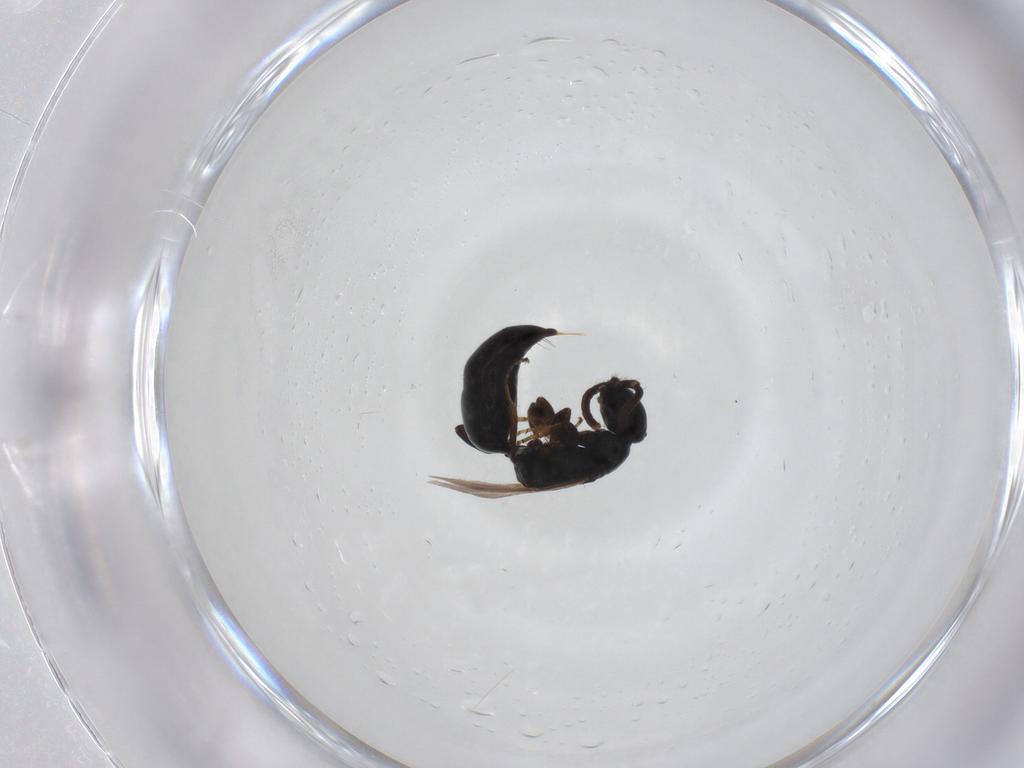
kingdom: Animalia
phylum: Arthropoda
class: Insecta
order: Hymenoptera
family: Bethylidae
